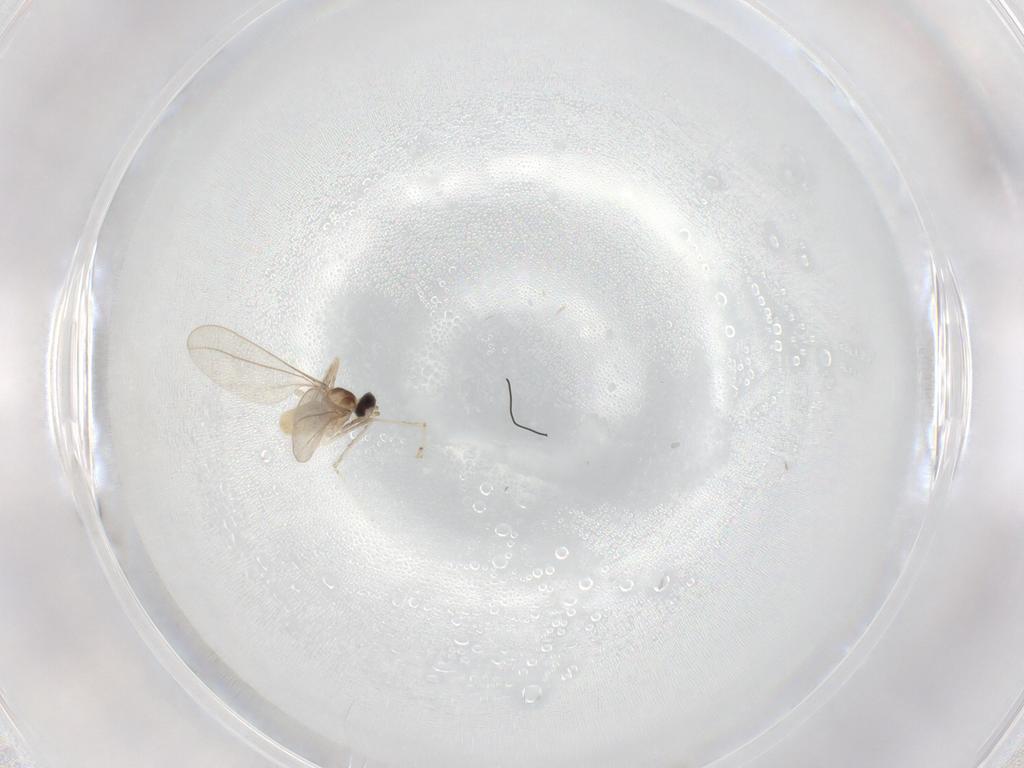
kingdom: Animalia
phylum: Arthropoda
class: Insecta
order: Diptera
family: Cecidomyiidae
